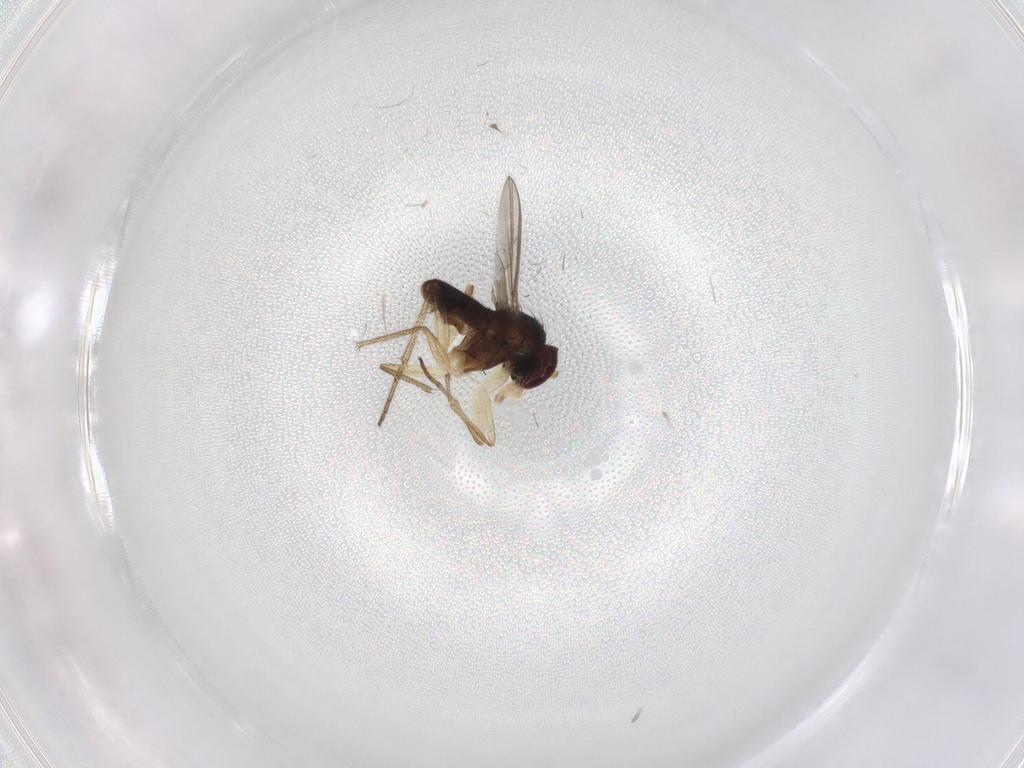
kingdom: Animalia
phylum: Arthropoda
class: Insecta
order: Diptera
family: Dolichopodidae
